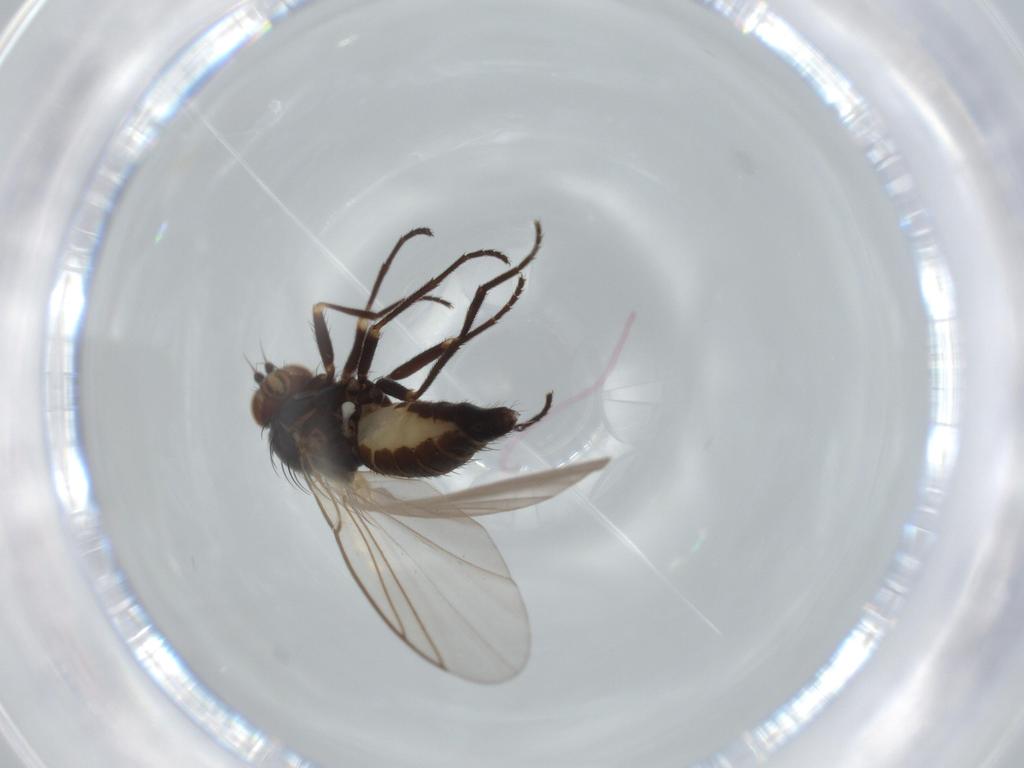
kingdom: Animalia
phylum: Arthropoda
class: Insecta
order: Diptera
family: Agromyzidae
